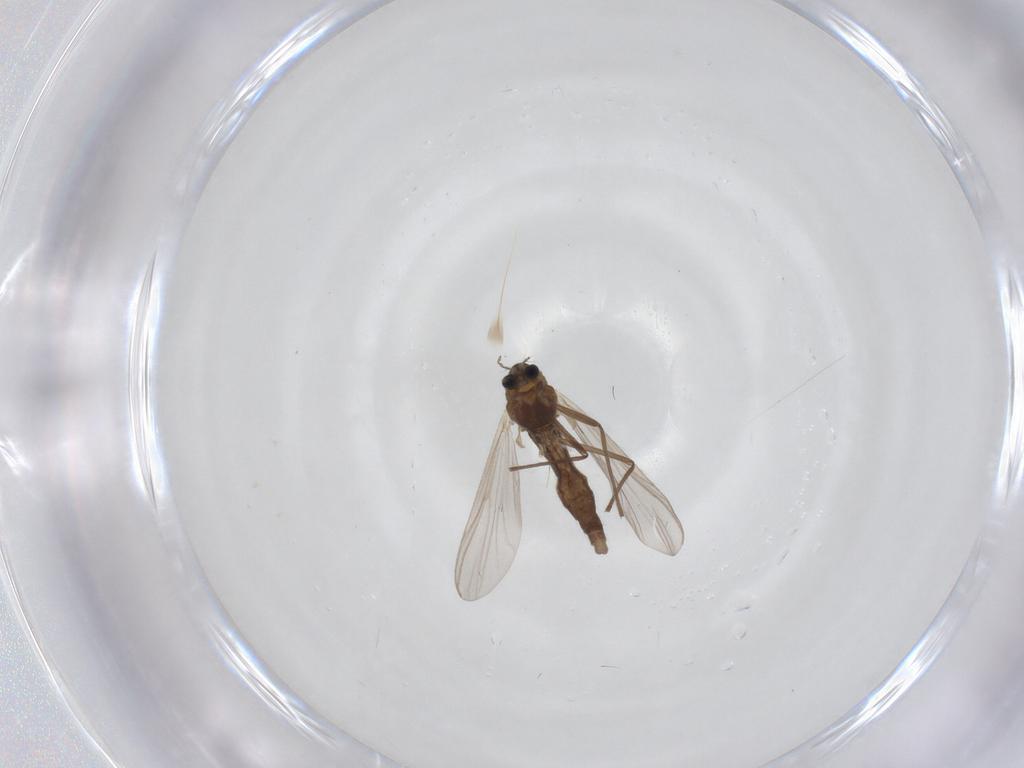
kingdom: Animalia
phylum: Arthropoda
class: Insecta
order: Diptera
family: Chironomidae
